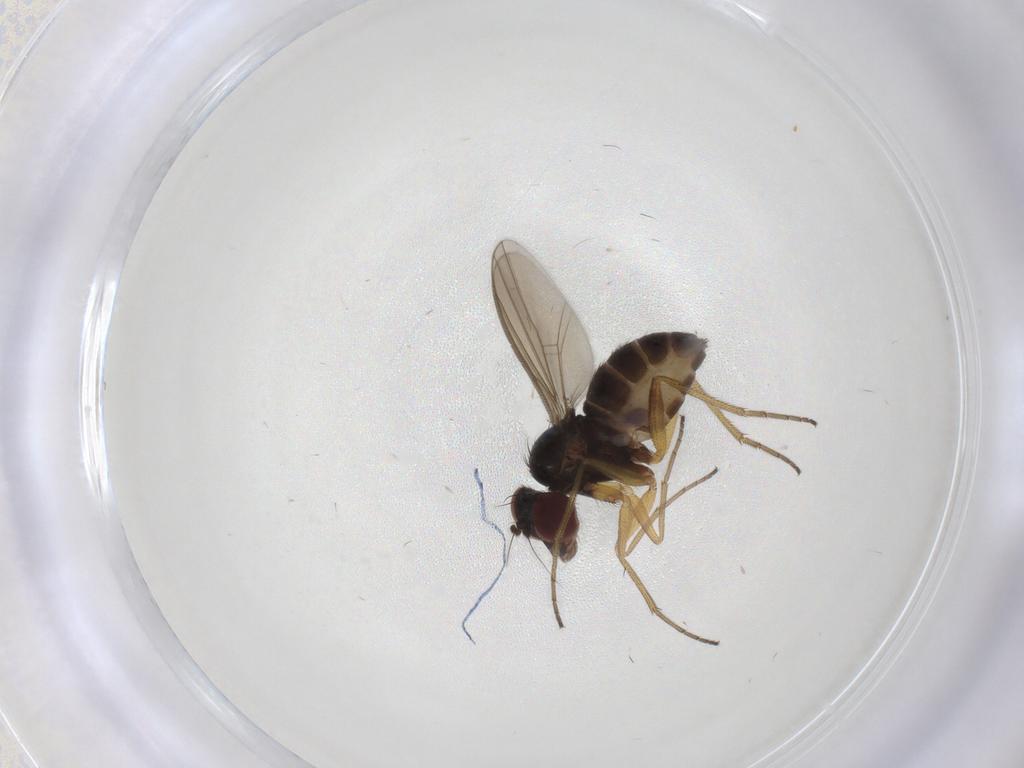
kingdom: Animalia
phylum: Arthropoda
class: Insecta
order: Diptera
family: Dolichopodidae
